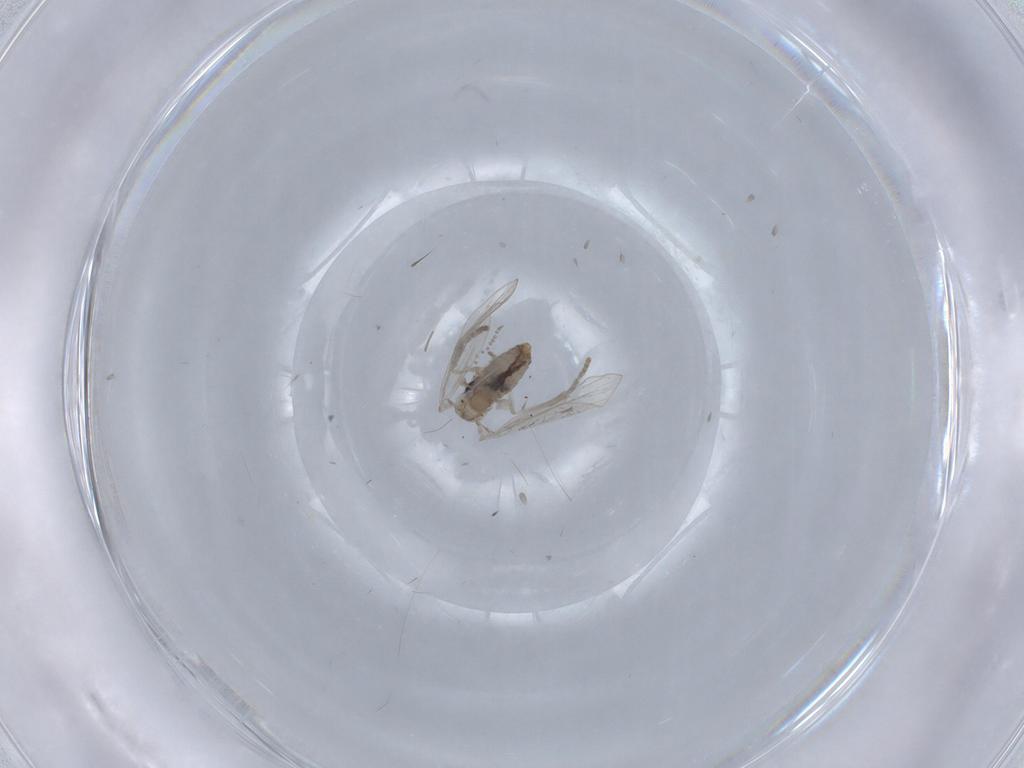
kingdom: Animalia
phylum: Arthropoda
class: Insecta
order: Diptera
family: Psychodidae
